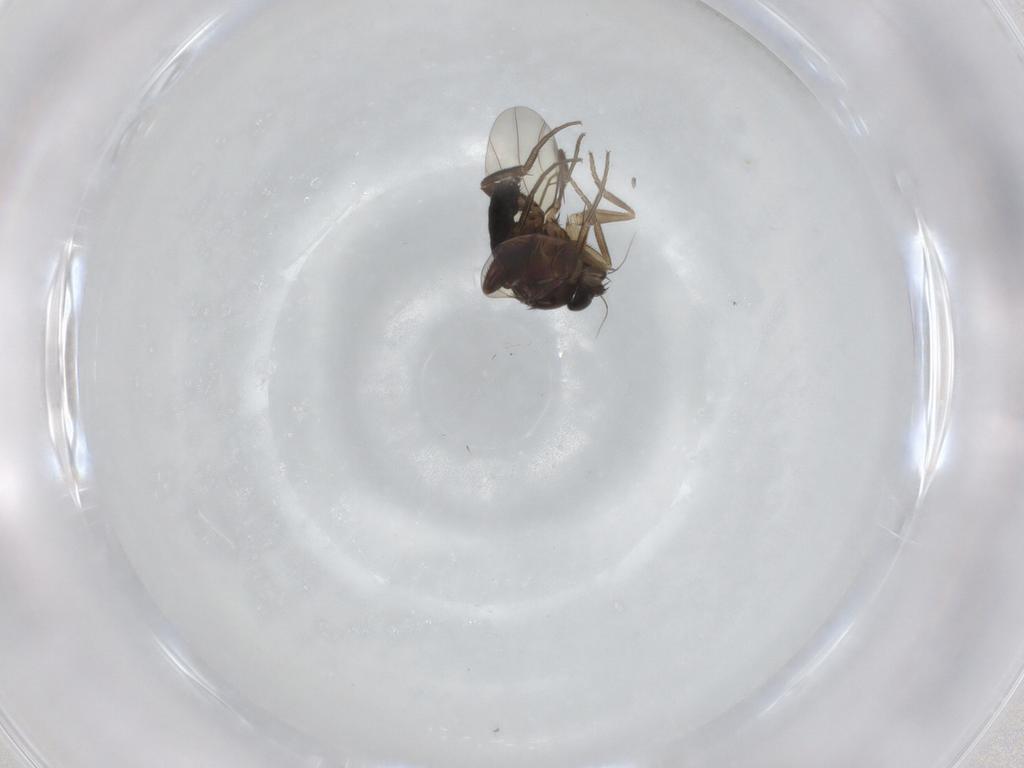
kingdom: Animalia
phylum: Arthropoda
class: Insecta
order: Diptera
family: Phoridae
